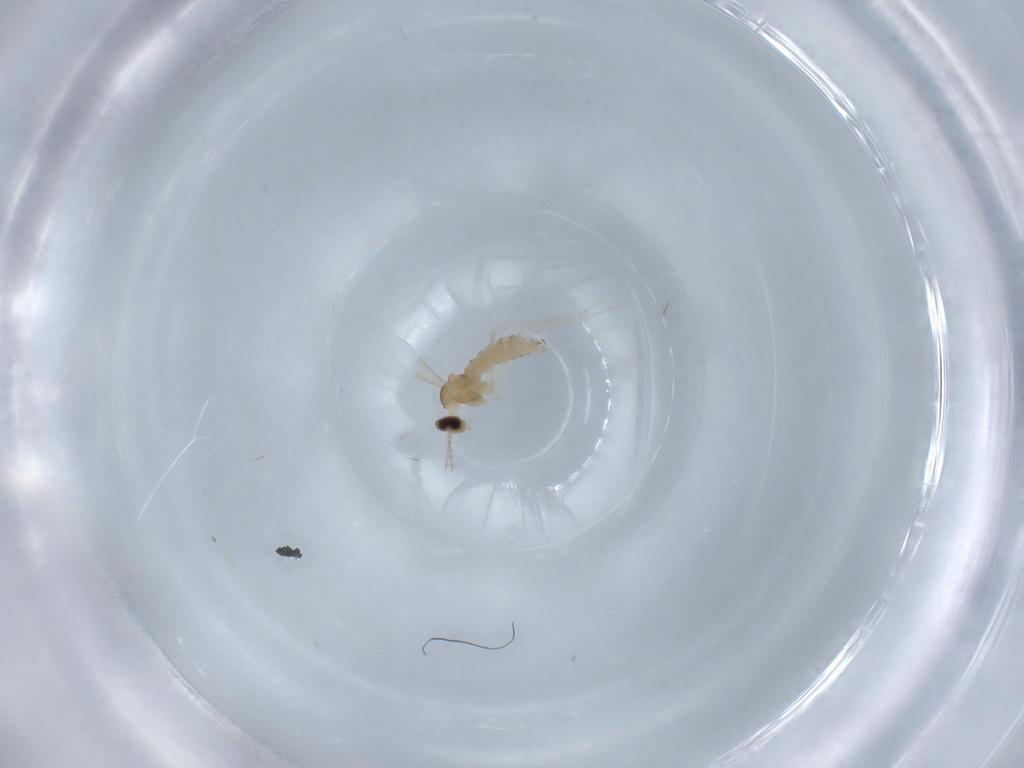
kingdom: Animalia
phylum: Arthropoda
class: Insecta
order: Diptera
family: Cecidomyiidae
